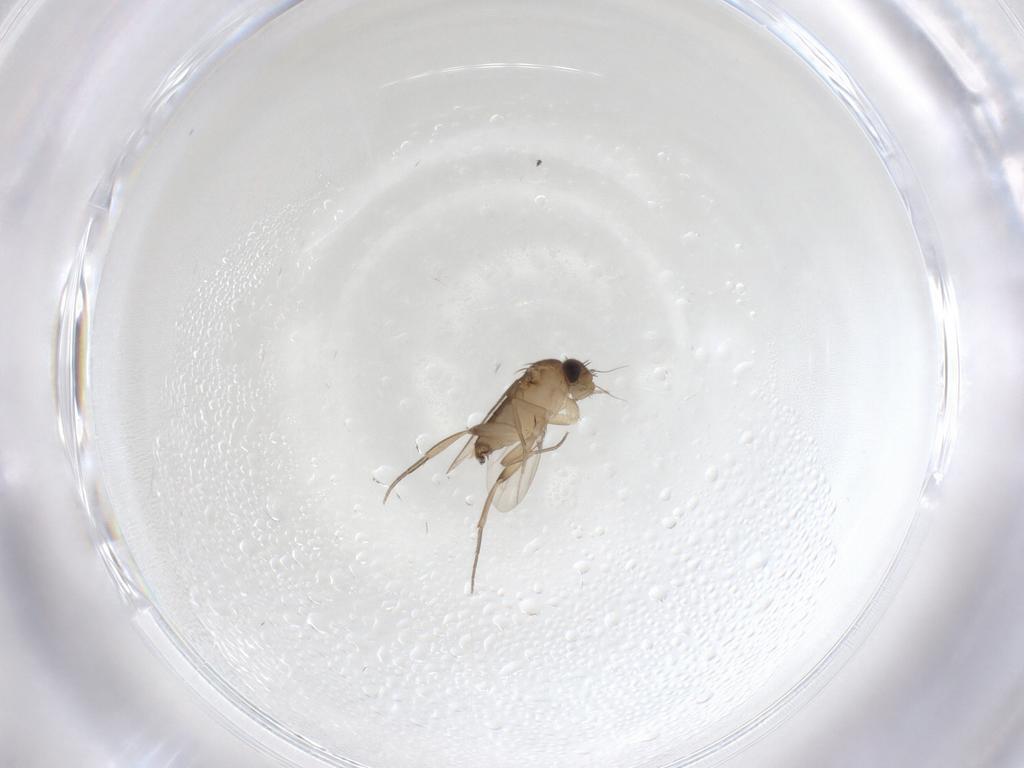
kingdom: Animalia
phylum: Arthropoda
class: Insecta
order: Diptera
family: Phoridae
